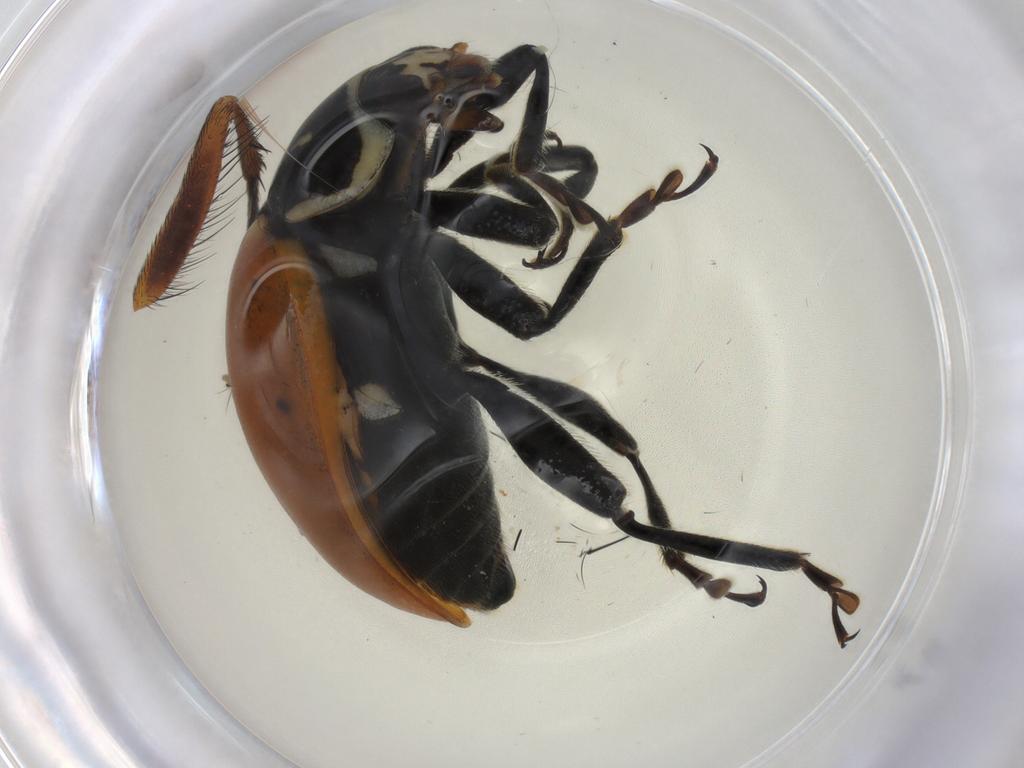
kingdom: Animalia
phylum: Arthropoda
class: Insecta
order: Coleoptera
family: Coccinellidae
